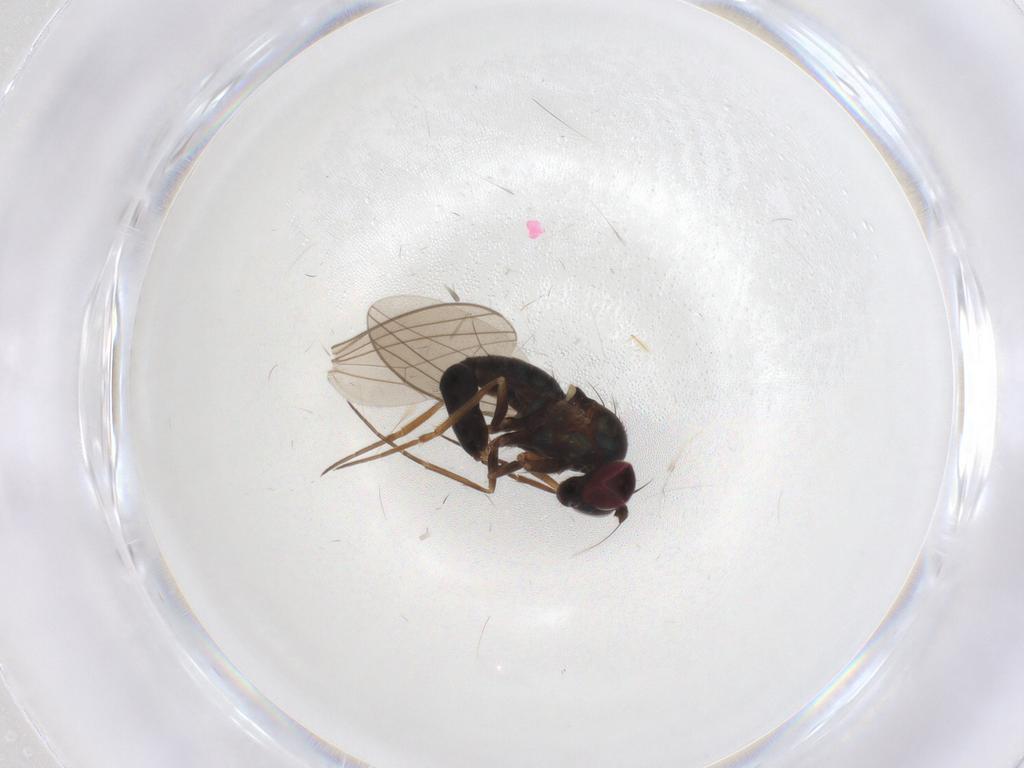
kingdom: Animalia
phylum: Arthropoda
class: Insecta
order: Diptera
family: Dolichopodidae
